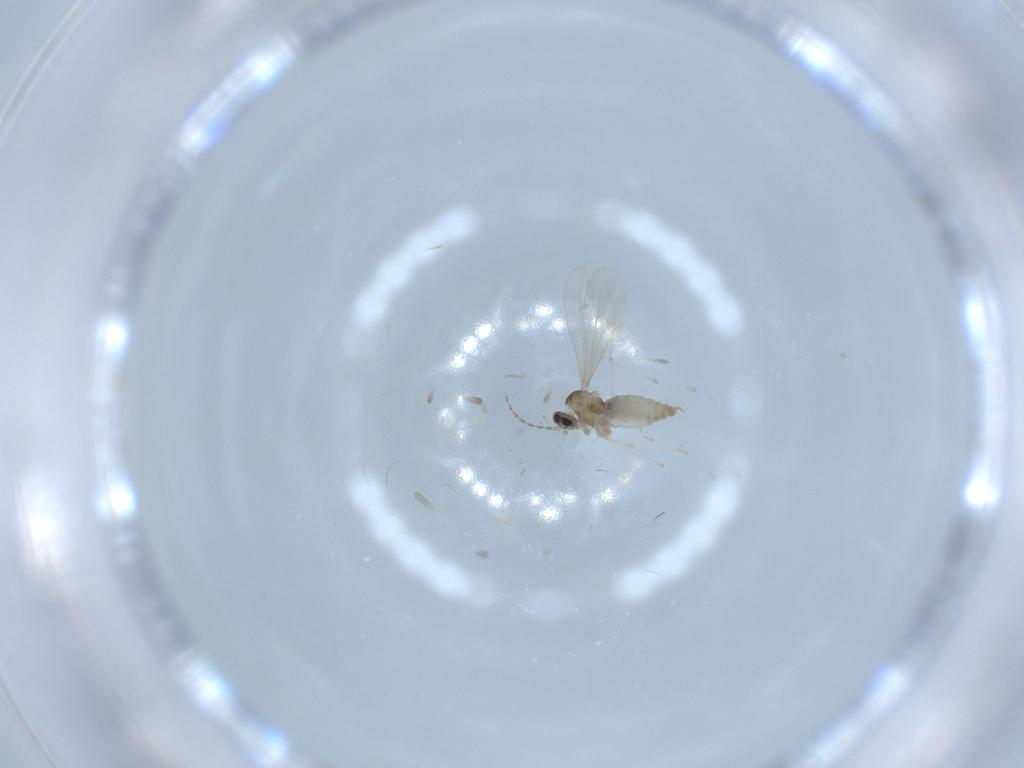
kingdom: Animalia
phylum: Arthropoda
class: Insecta
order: Diptera
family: Cecidomyiidae
